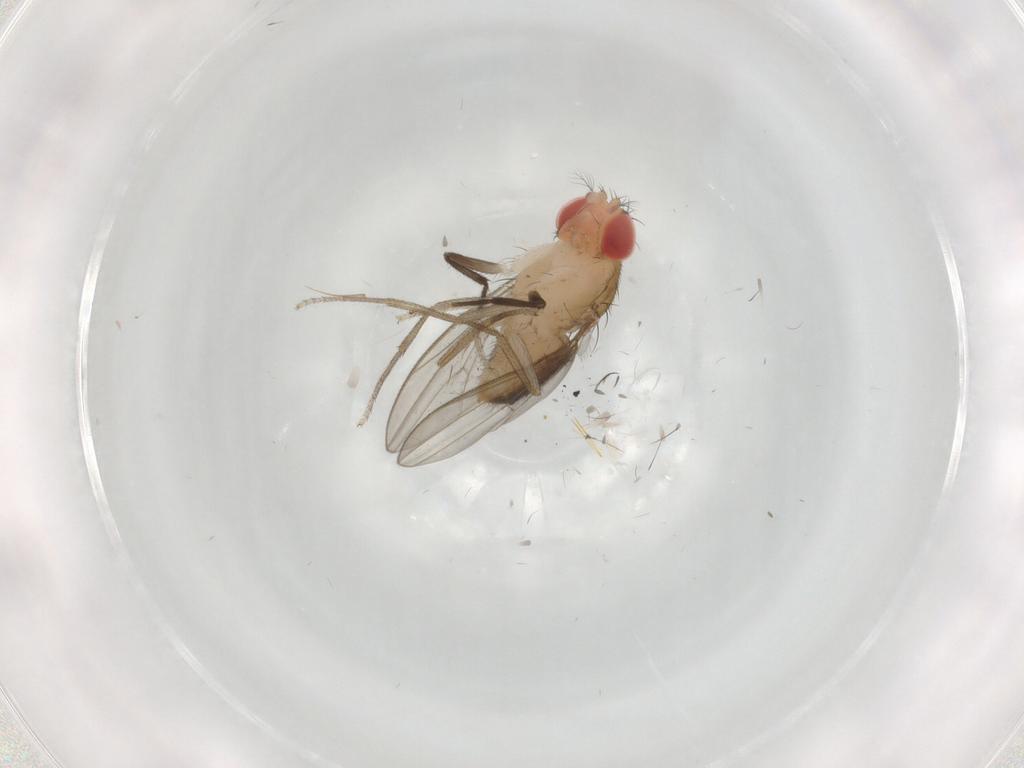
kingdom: Animalia
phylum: Arthropoda
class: Insecta
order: Diptera
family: Drosophilidae
